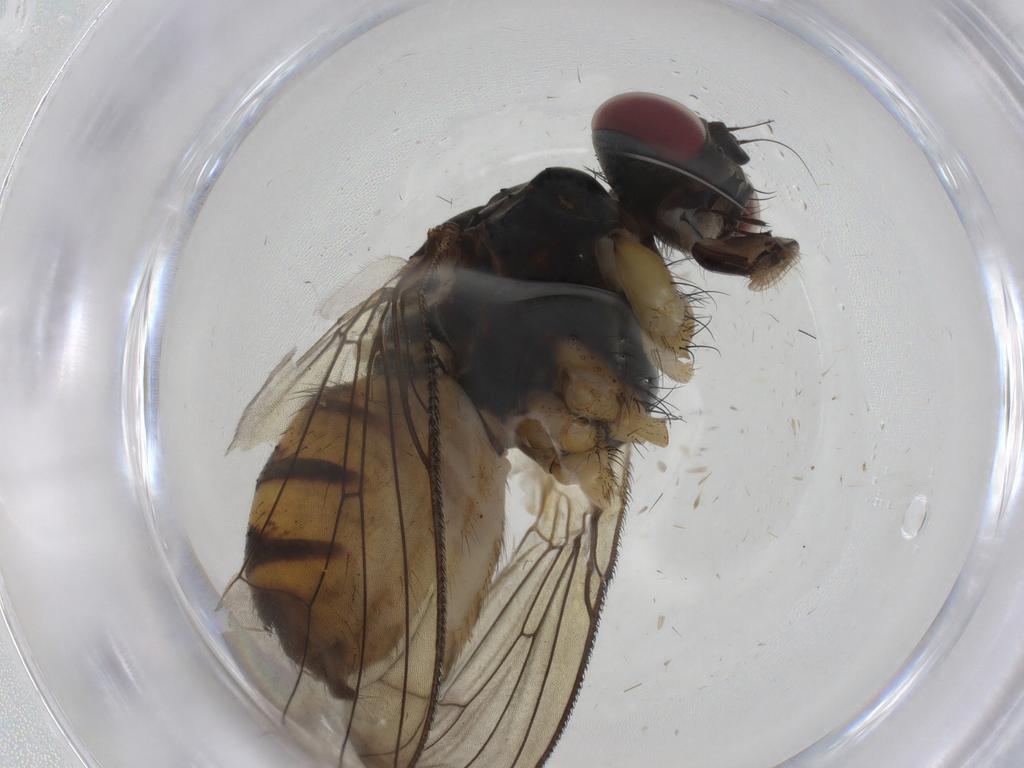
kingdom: Animalia
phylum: Arthropoda
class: Insecta
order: Diptera
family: Muscidae
